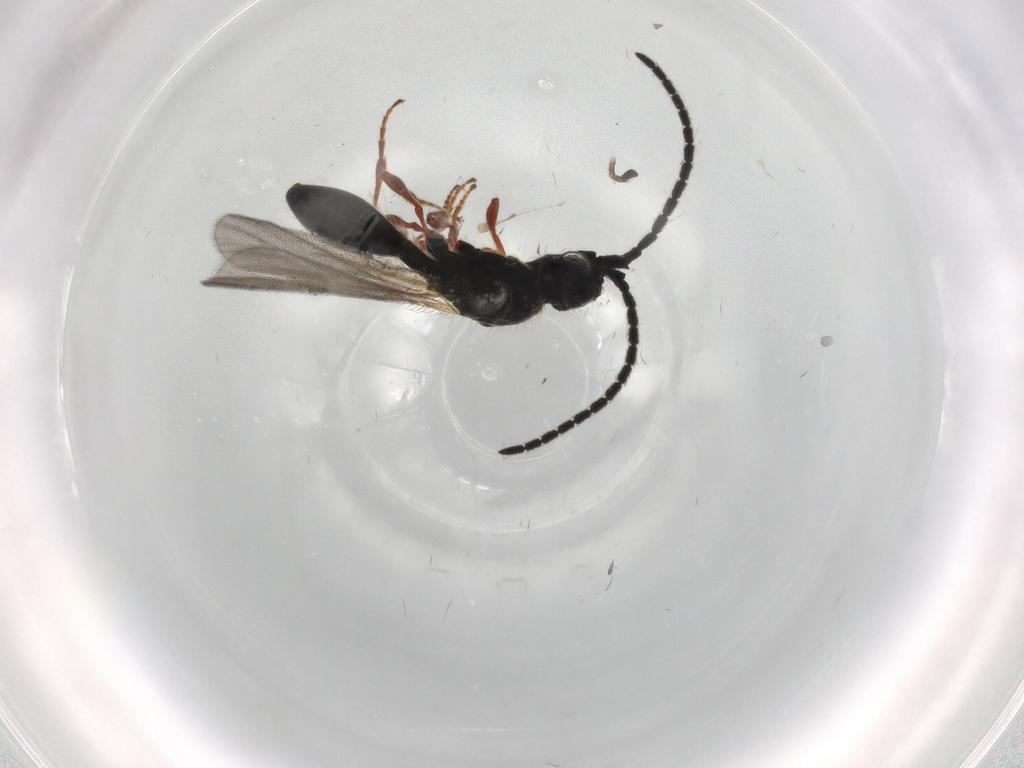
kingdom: Animalia
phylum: Arthropoda
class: Insecta
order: Hymenoptera
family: Diapriidae
